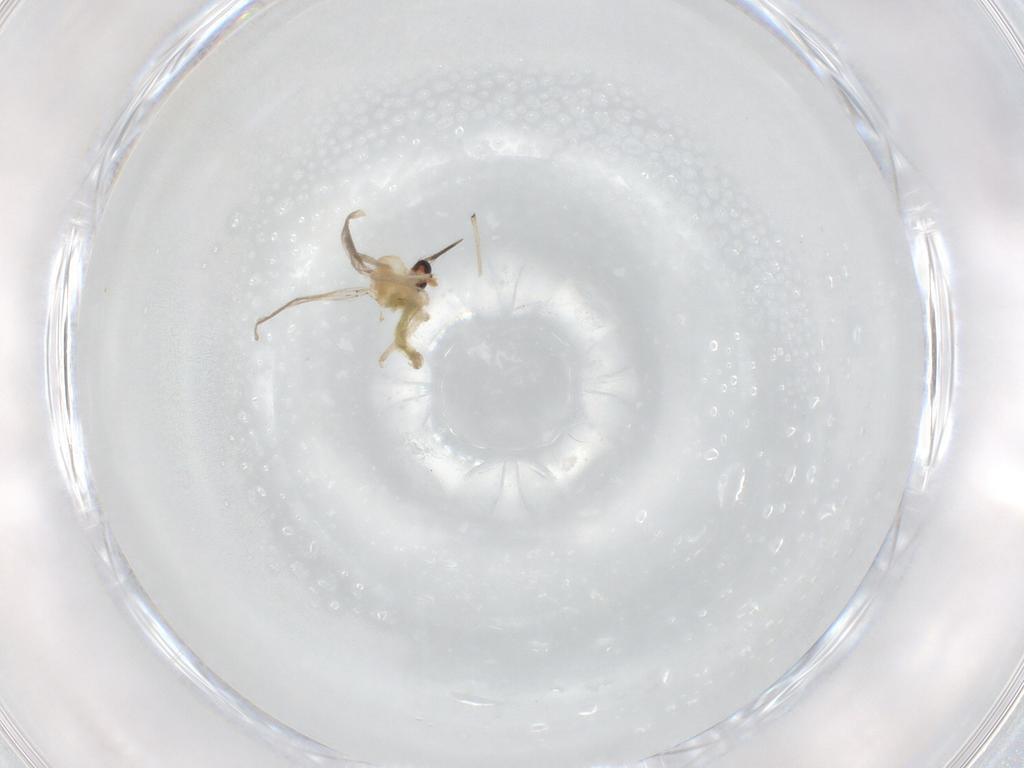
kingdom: Animalia
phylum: Arthropoda
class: Insecta
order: Diptera
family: Chironomidae
